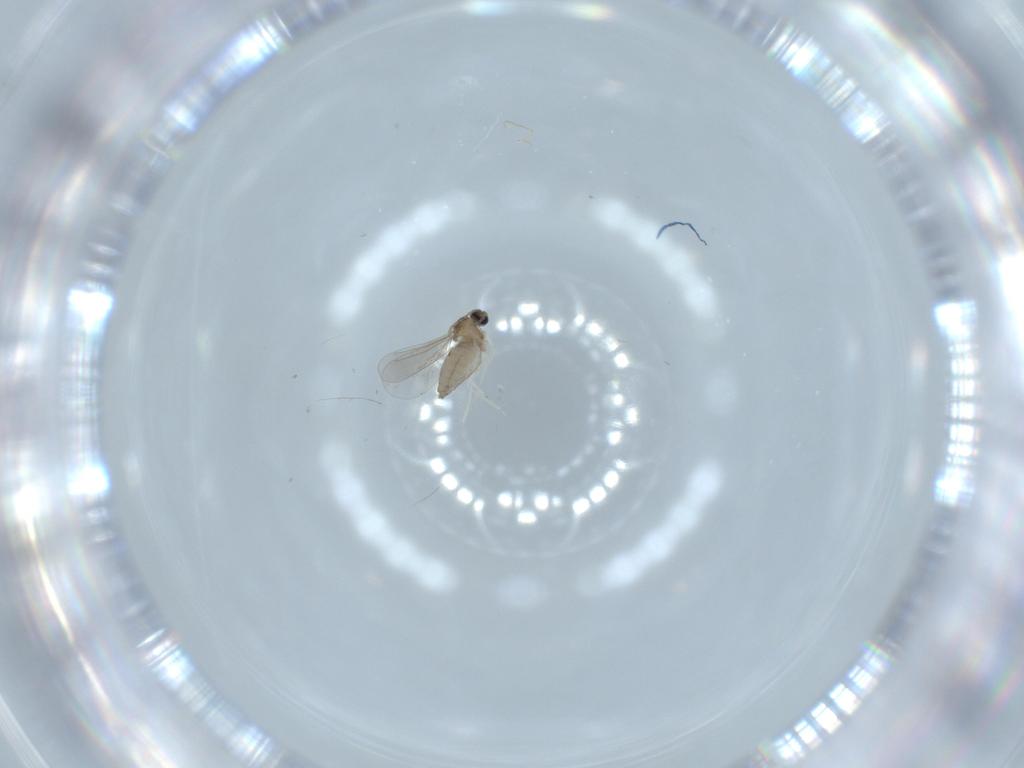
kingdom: Animalia
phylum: Arthropoda
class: Insecta
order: Diptera
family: Cecidomyiidae
